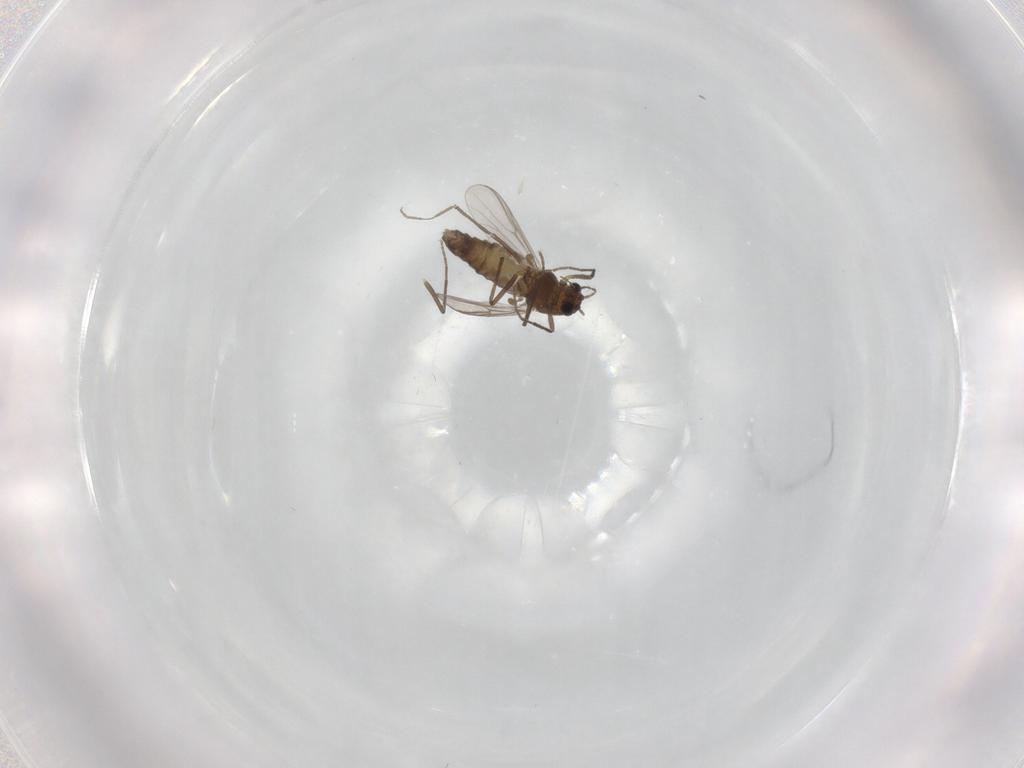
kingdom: Animalia
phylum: Arthropoda
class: Insecta
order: Diptera
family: Chironomidae
